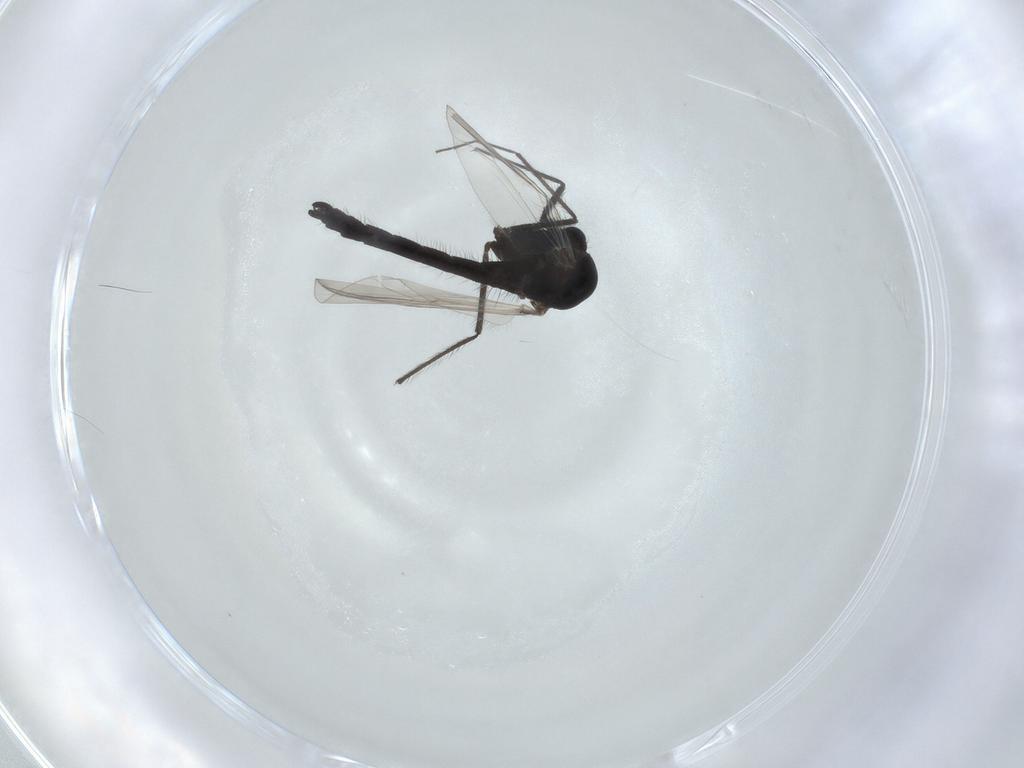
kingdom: Animalia
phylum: Arthropoda
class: Insecta
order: Diptera
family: Chironomidae
